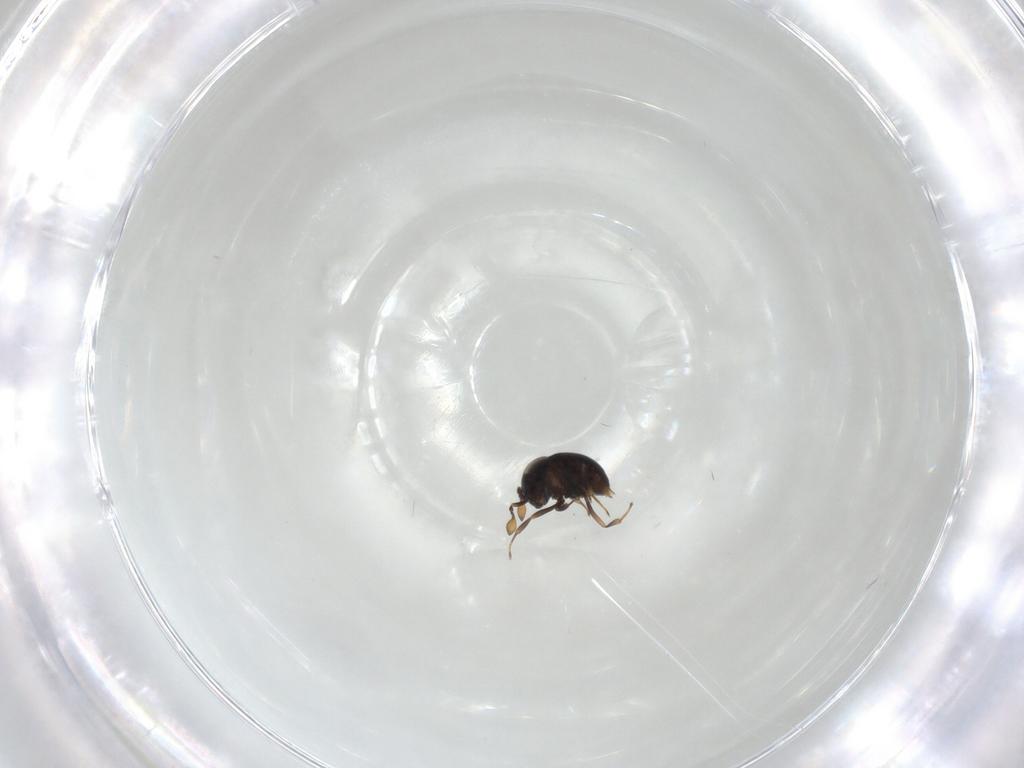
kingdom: Animalia
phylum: Arthropoda
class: Insecta
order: Hymenoptera
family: Scelionidae
